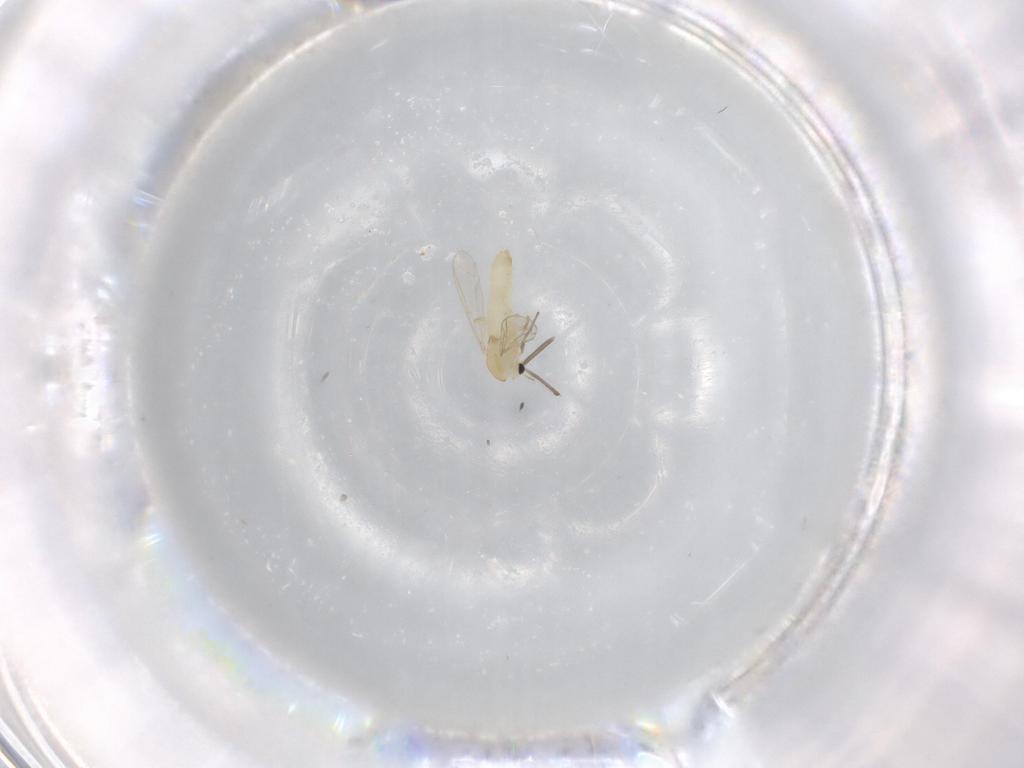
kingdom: Animalia
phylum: Arthropoda
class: Insecta
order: Diptera
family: Chironomidae
